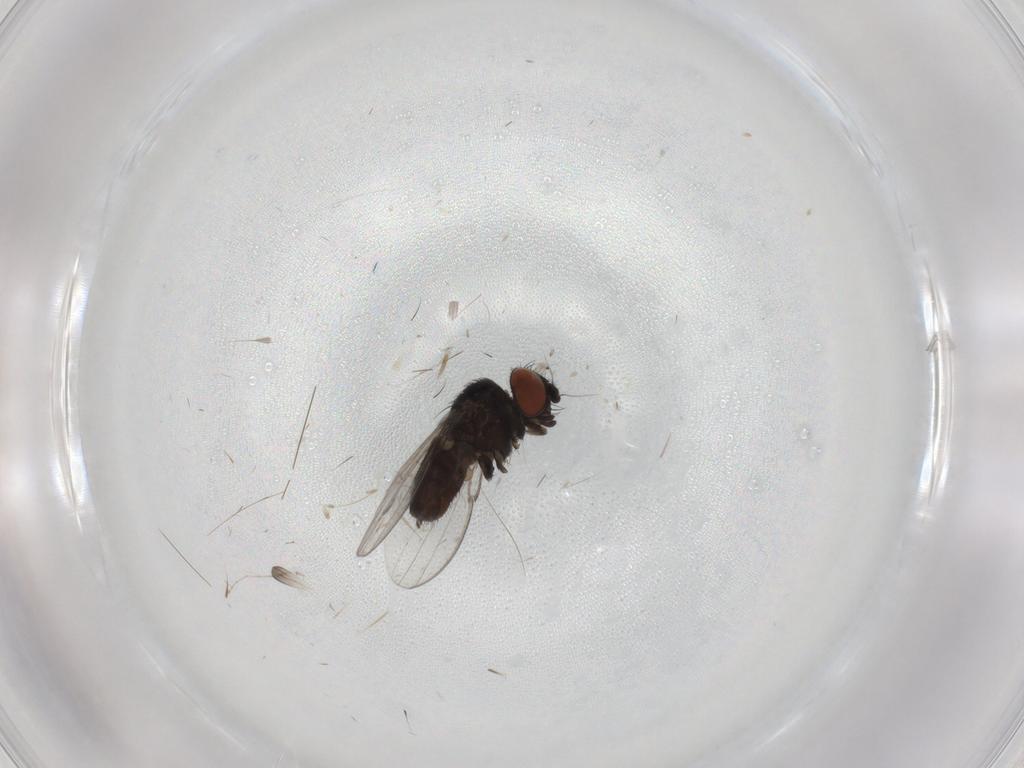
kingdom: Animalia
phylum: Arthropoda
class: Insecta
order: Diptera
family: Milichiidae
